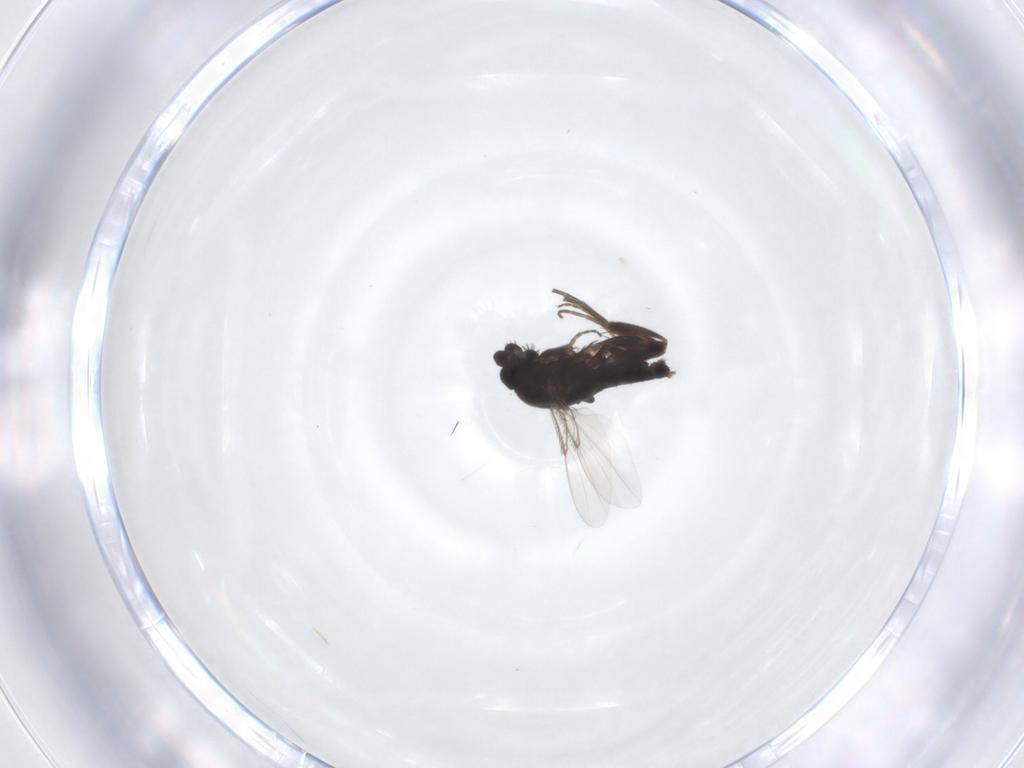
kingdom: Animalia
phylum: Arthropoda
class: Insecta
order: Diptera
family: Phoridae
